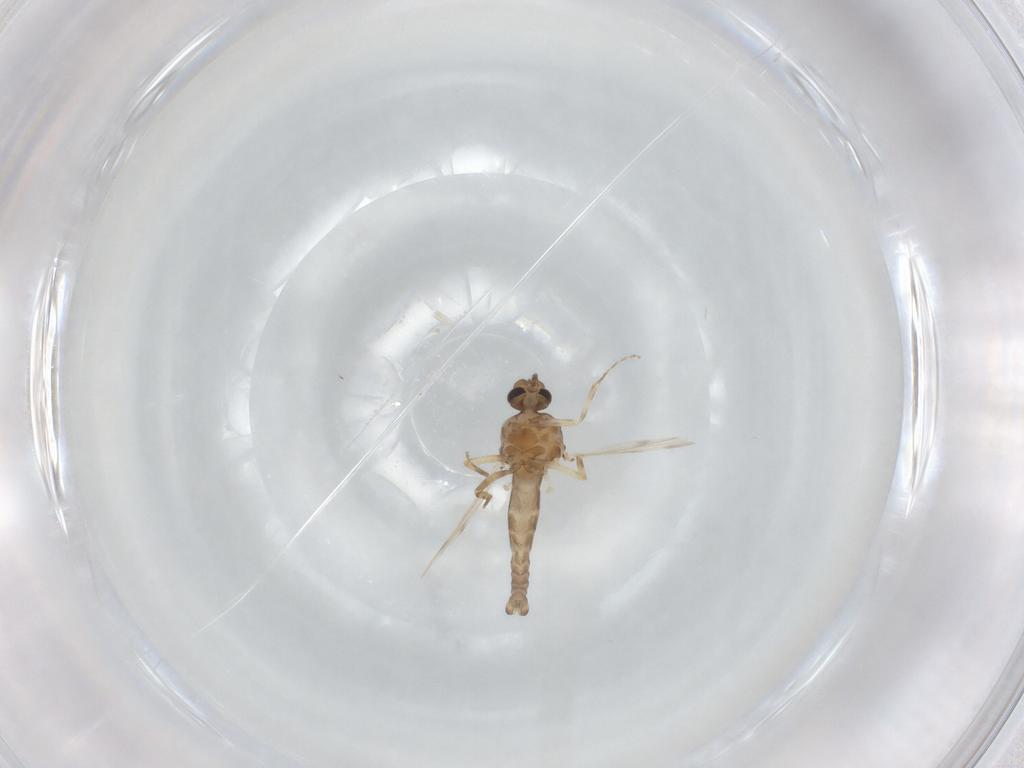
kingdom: Animalia
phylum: Arthropoda
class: Insecta
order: Diptera
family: Ceratopogonidae
